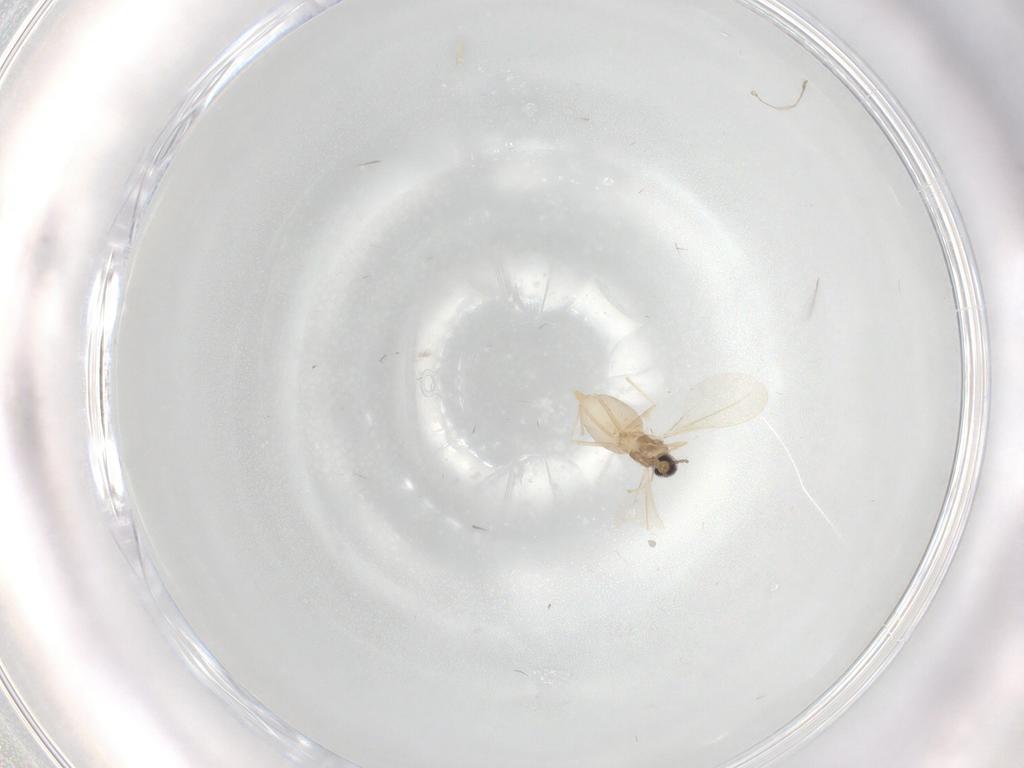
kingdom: Animalia
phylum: Arthropoda
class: Insecta
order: Diptera
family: Cecidomyiidae
